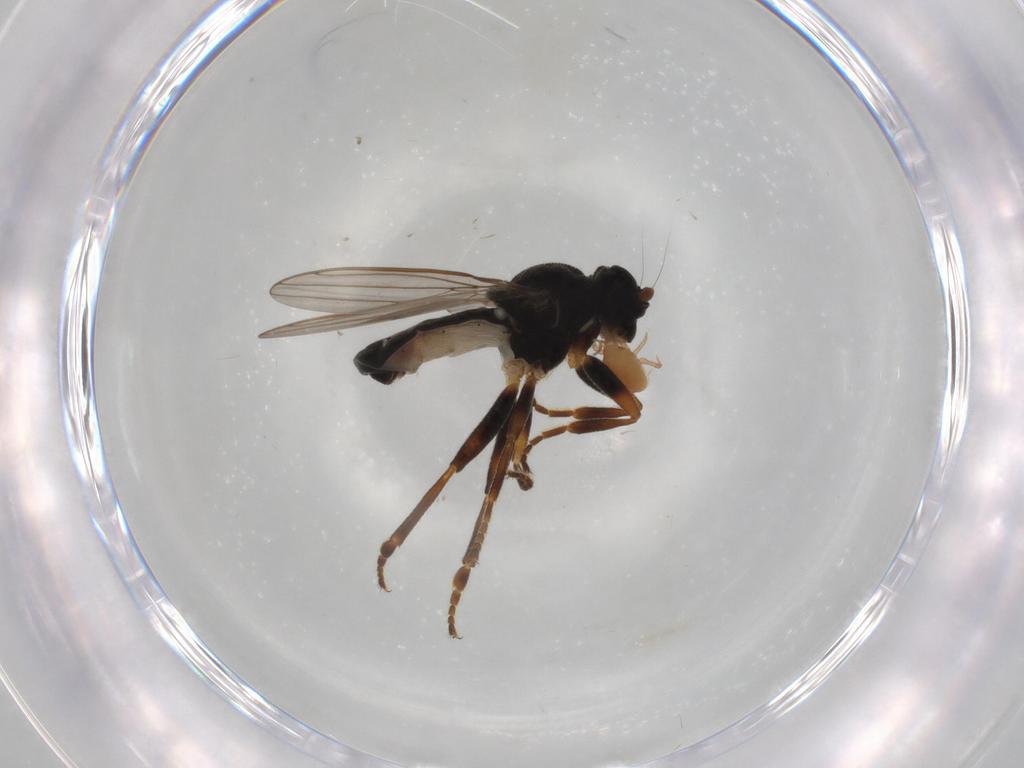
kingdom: Animalia
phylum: Arthropoda
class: Insecta
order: Diptera
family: Sphaeroceridae
